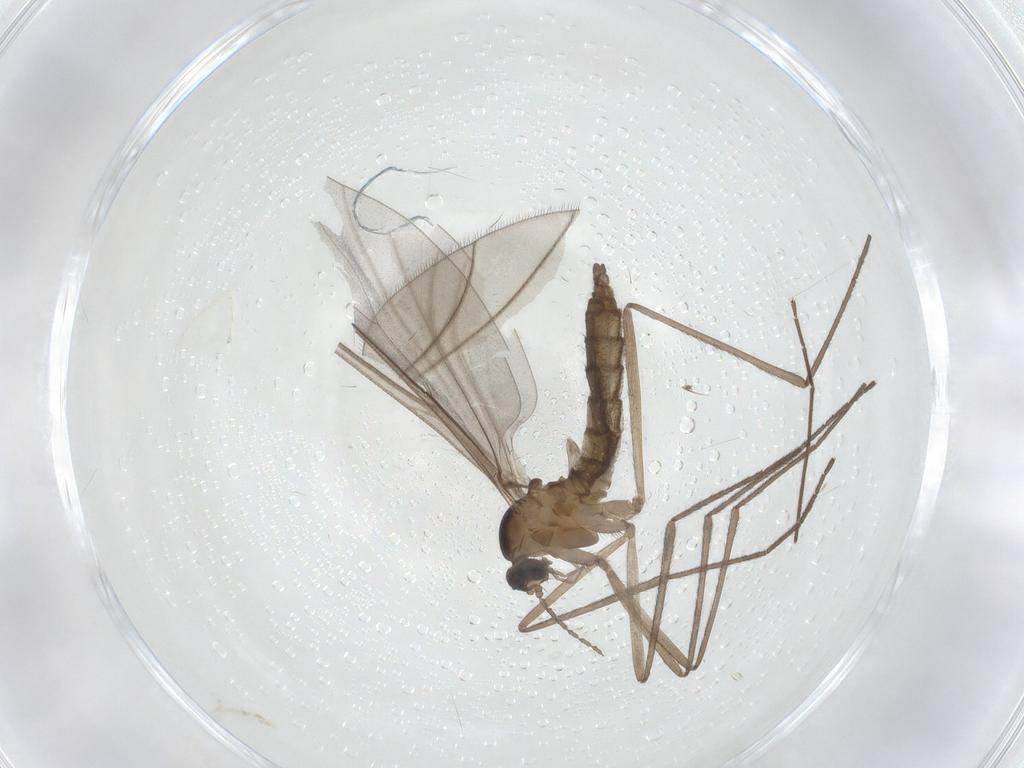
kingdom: Animalia
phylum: Arthropoda
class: Insecta
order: Diptera
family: Cecidomyiidae
